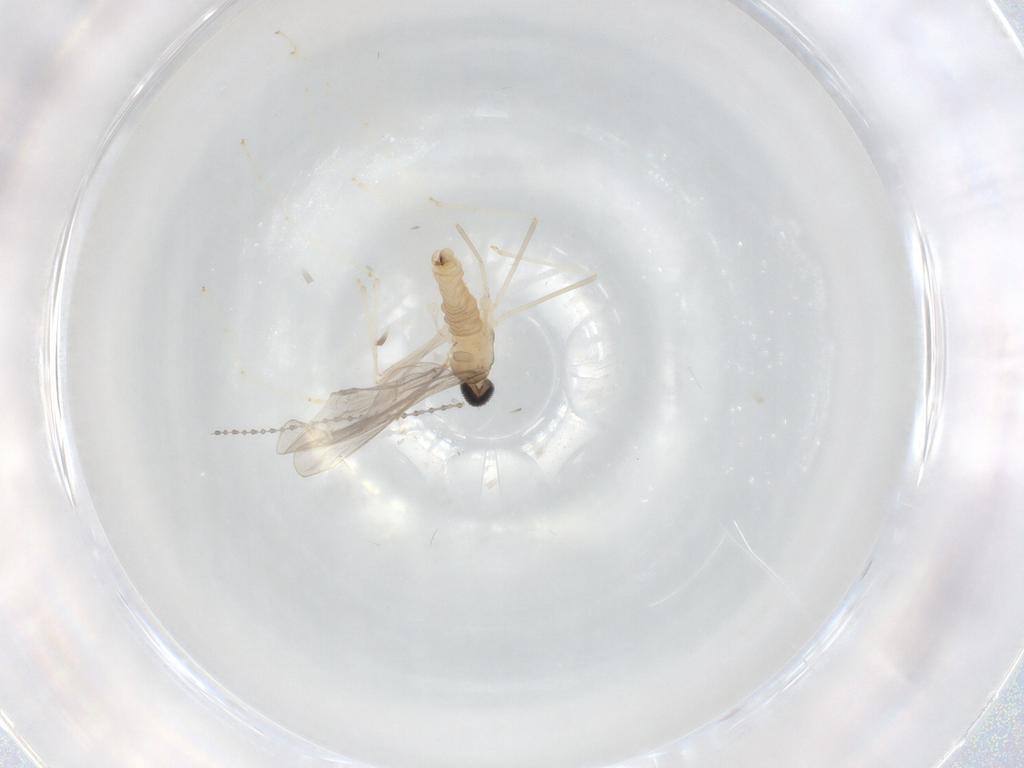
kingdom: Animalia
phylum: Arthropoda
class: Insecta
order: Diptera
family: Cecidomyiidae
